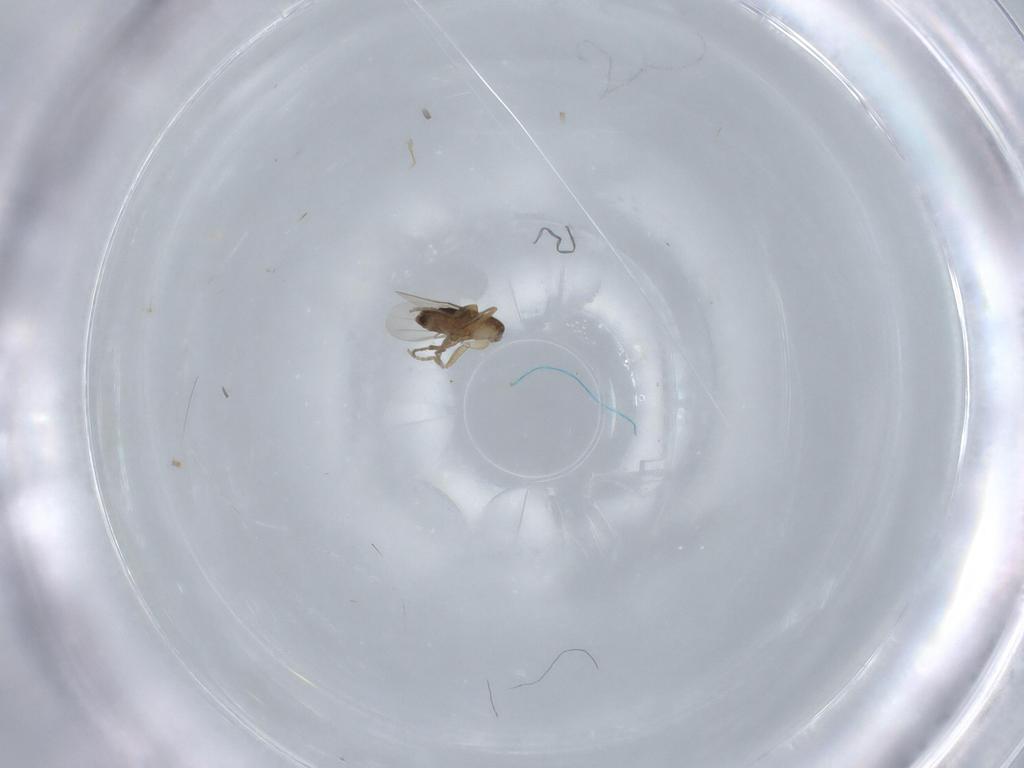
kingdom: Animalia
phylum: Arthropoda
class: Insecta
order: Diptera
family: Phoridae
